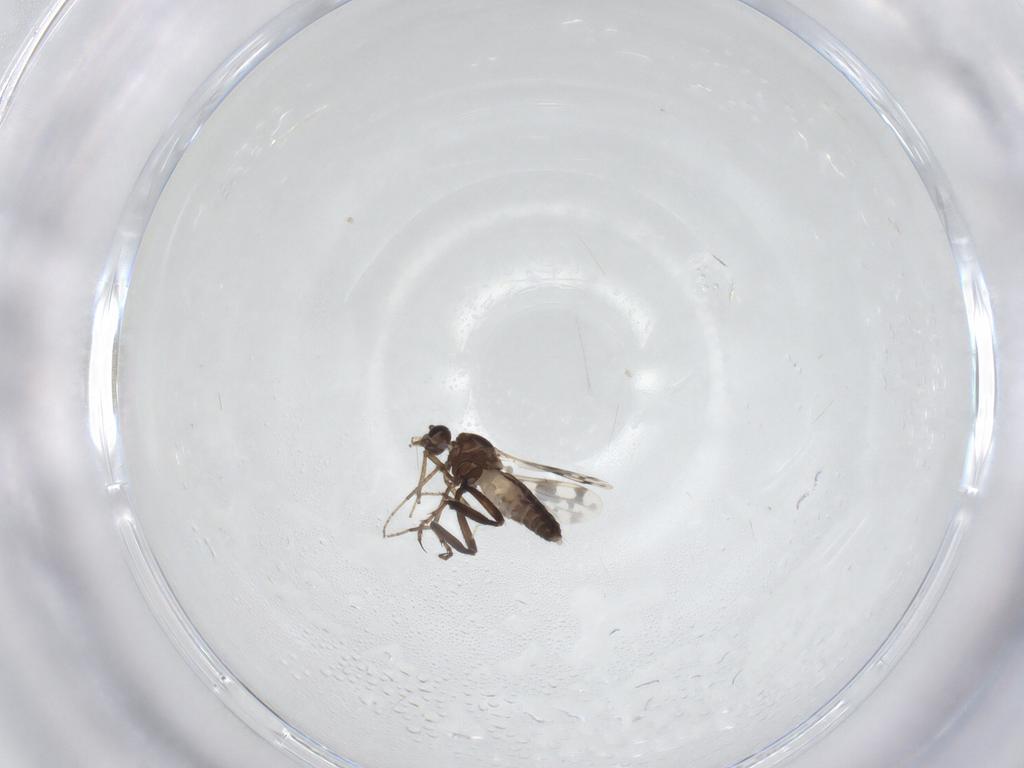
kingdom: Animalia
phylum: Arthropoda
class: Insecta
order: Diptera
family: Ceratopogonidae
